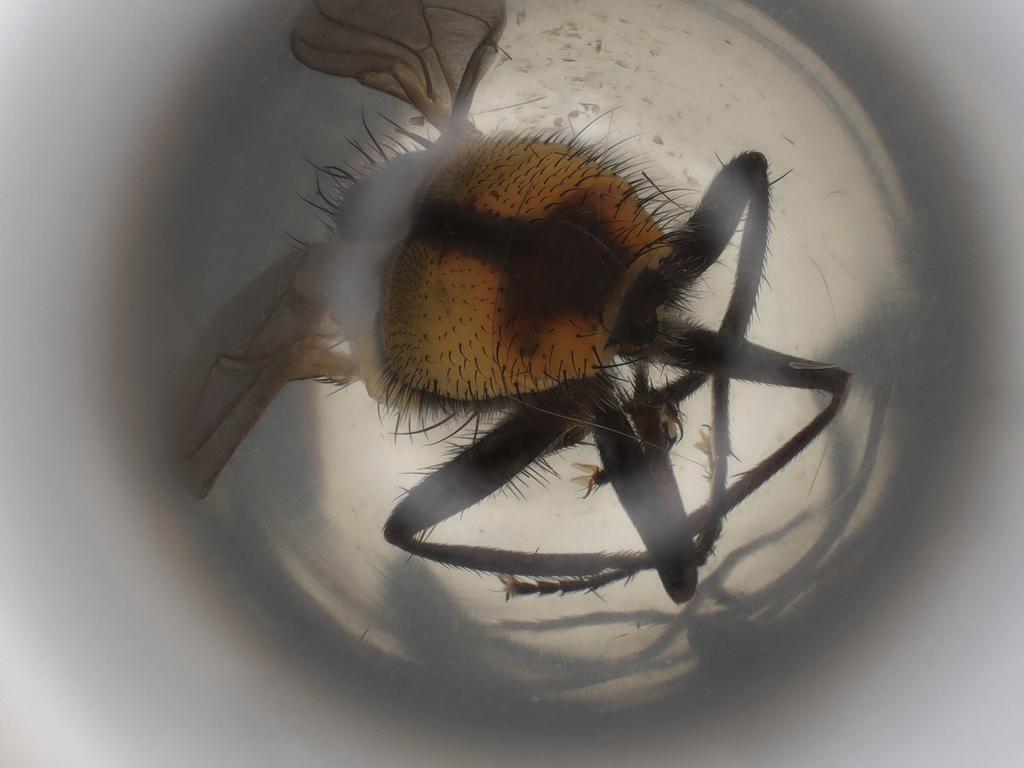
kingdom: Animalia
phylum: Arthropoda
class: Insecta
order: Diptera
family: Muscidae
